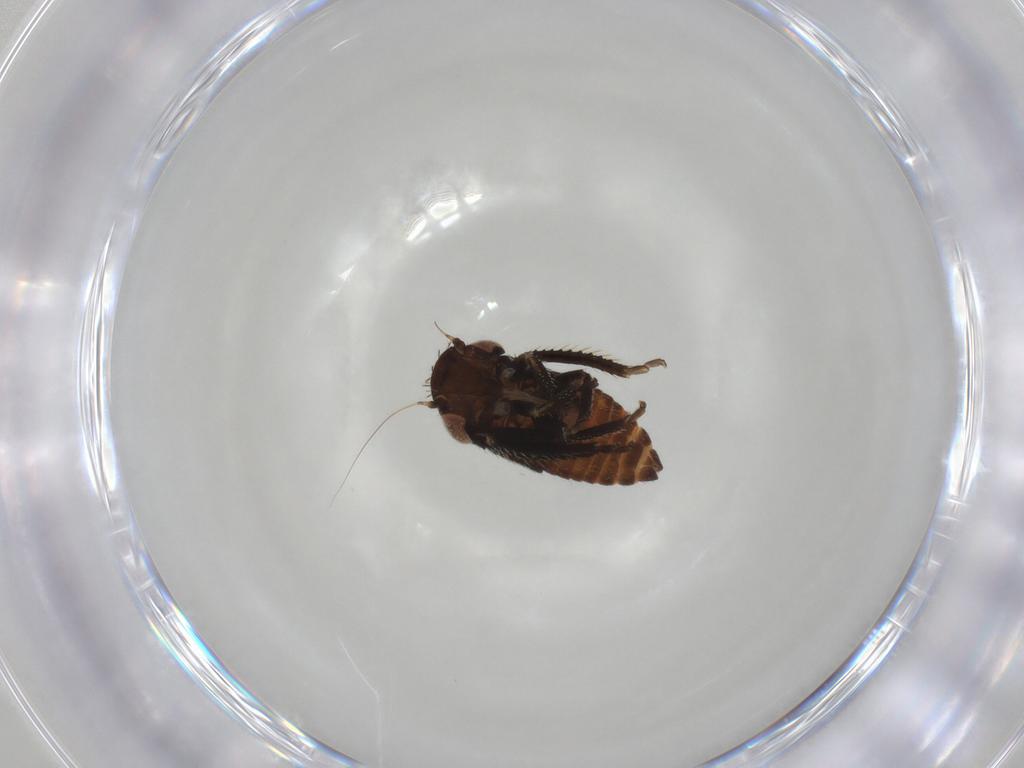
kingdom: Animalia
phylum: Arthropoda
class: Insecta
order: Hemiptera
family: Cicadellidae
